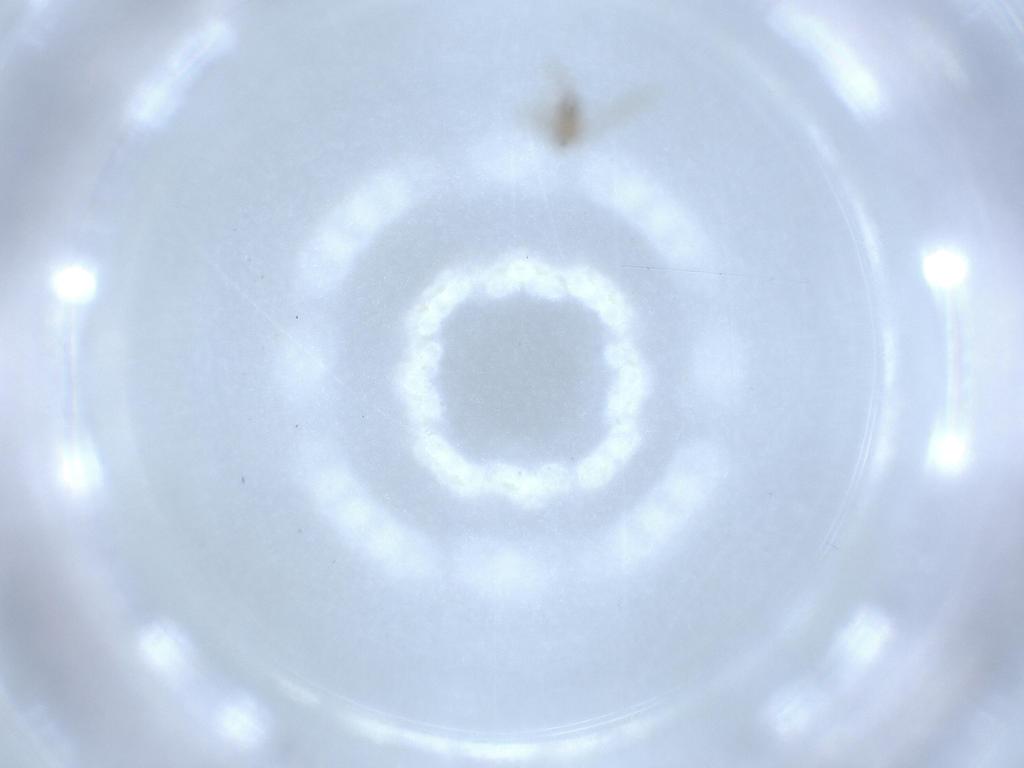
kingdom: Animalia
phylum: Arthropoda
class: Insecta
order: Diptera
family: Cecidomyiidae
